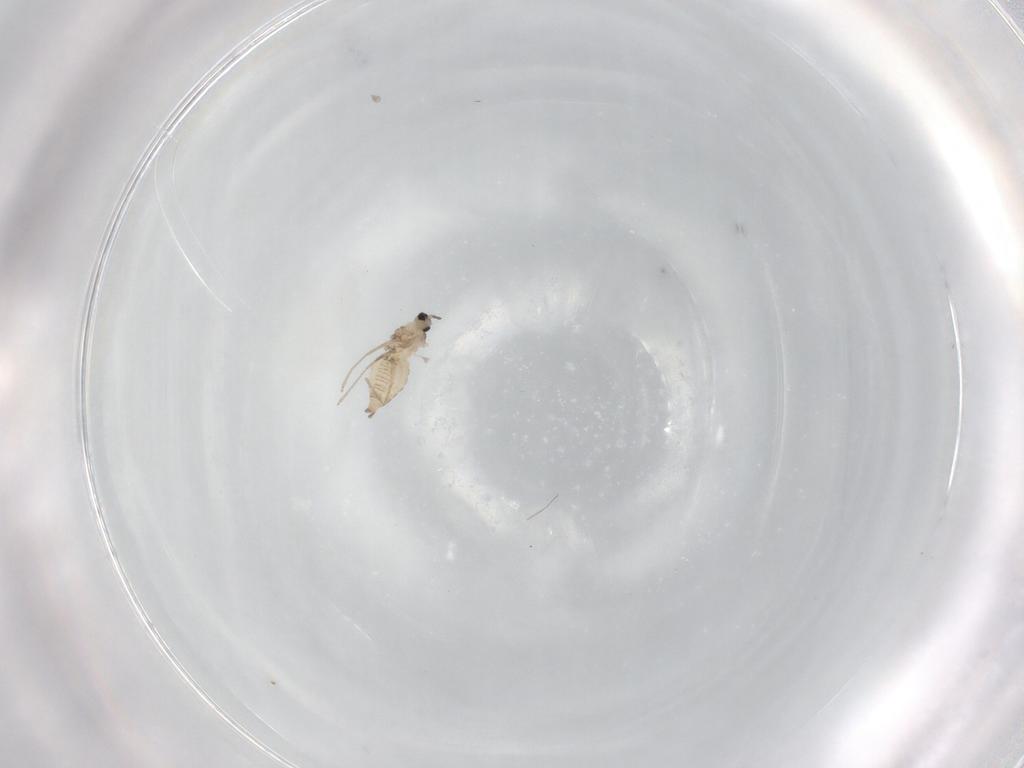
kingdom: Animalia
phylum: Arthropoda
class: Insecta
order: Diptera
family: Cecidomyiidae
